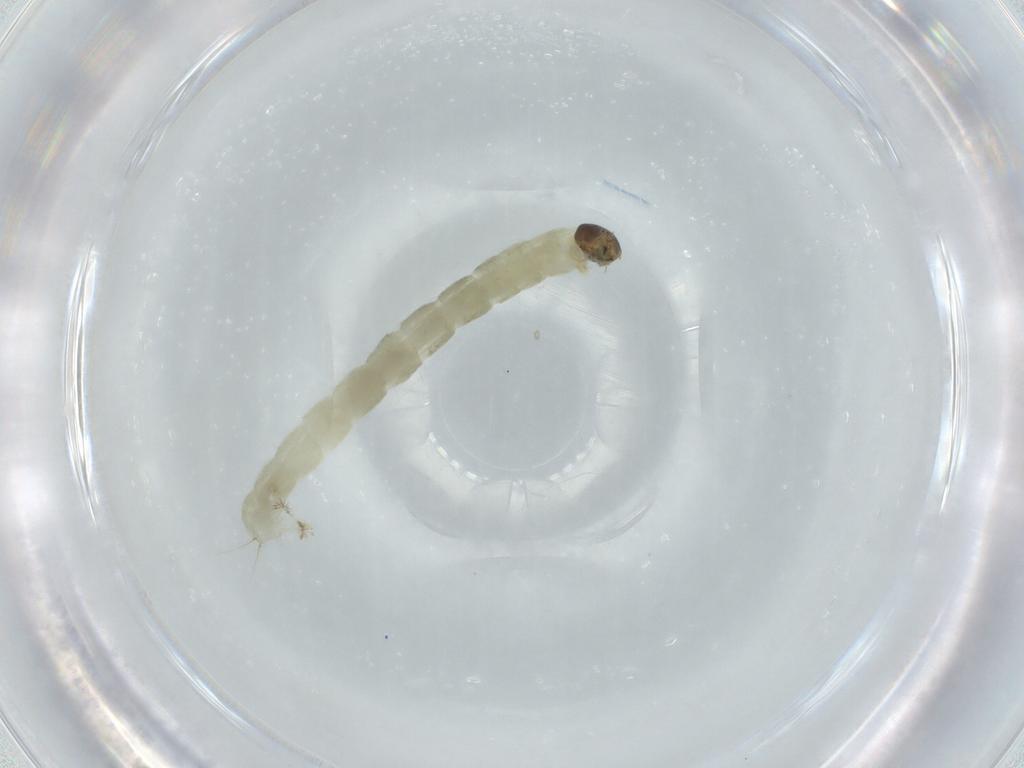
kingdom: Animalia
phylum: Arthropoda
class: Insecta
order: Diptera
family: Chironomidae
